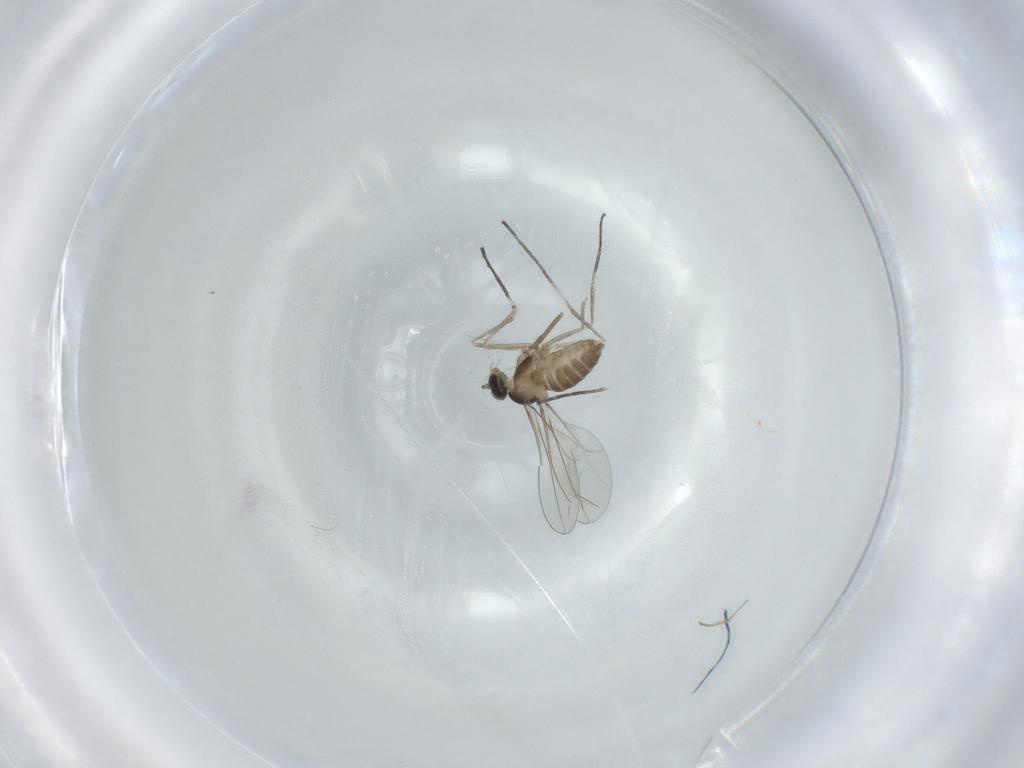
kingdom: Animalia
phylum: Arthropoda
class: Insecta
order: Diptera
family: Cecidomyiidae
